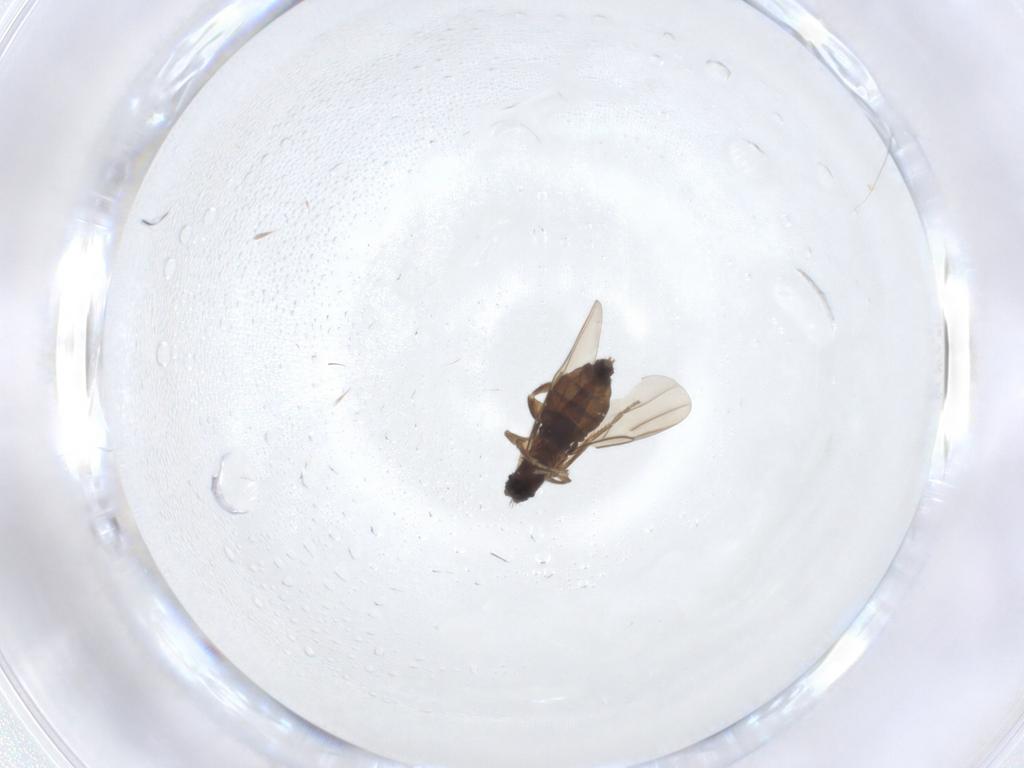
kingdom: Animalia
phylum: Arthropoda
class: Insecta
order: Diptera
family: Phoridae
